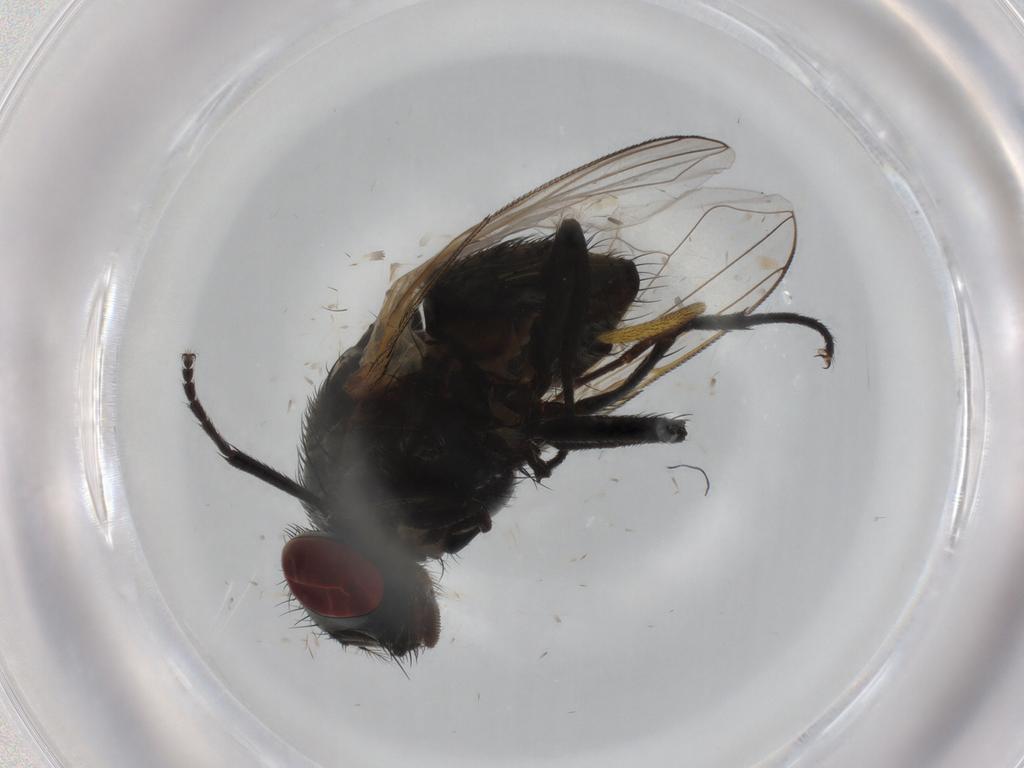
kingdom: Animalia
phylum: Arthropoda
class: Insecta
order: Diptera
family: Muscidae
